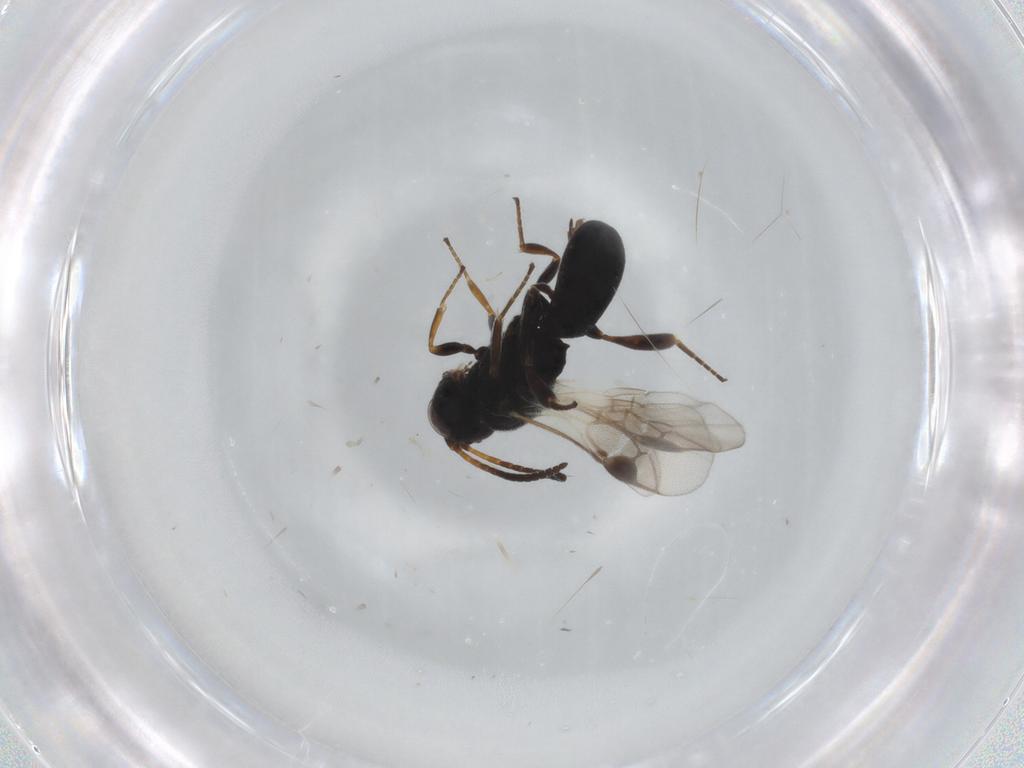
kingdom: Animalia
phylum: Arthropoda
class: Insecta
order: Hymenoptera
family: Braconidae
